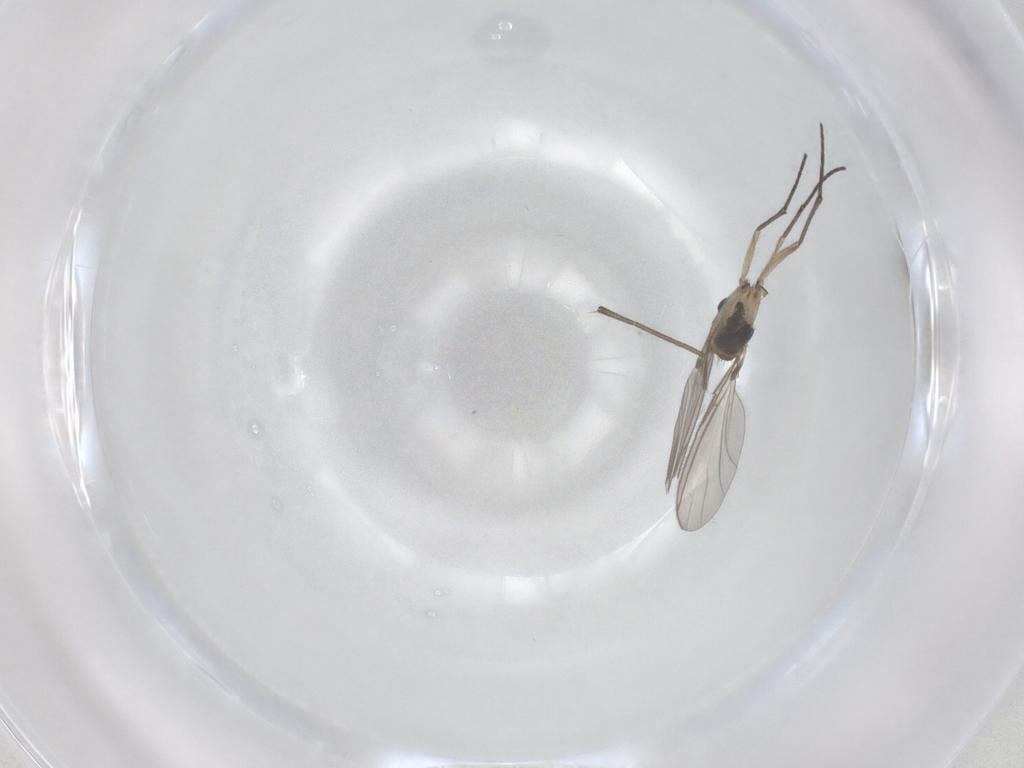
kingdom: Animalia
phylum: Arthropoda
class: Insecta
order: Diptera
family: Sciaridae
